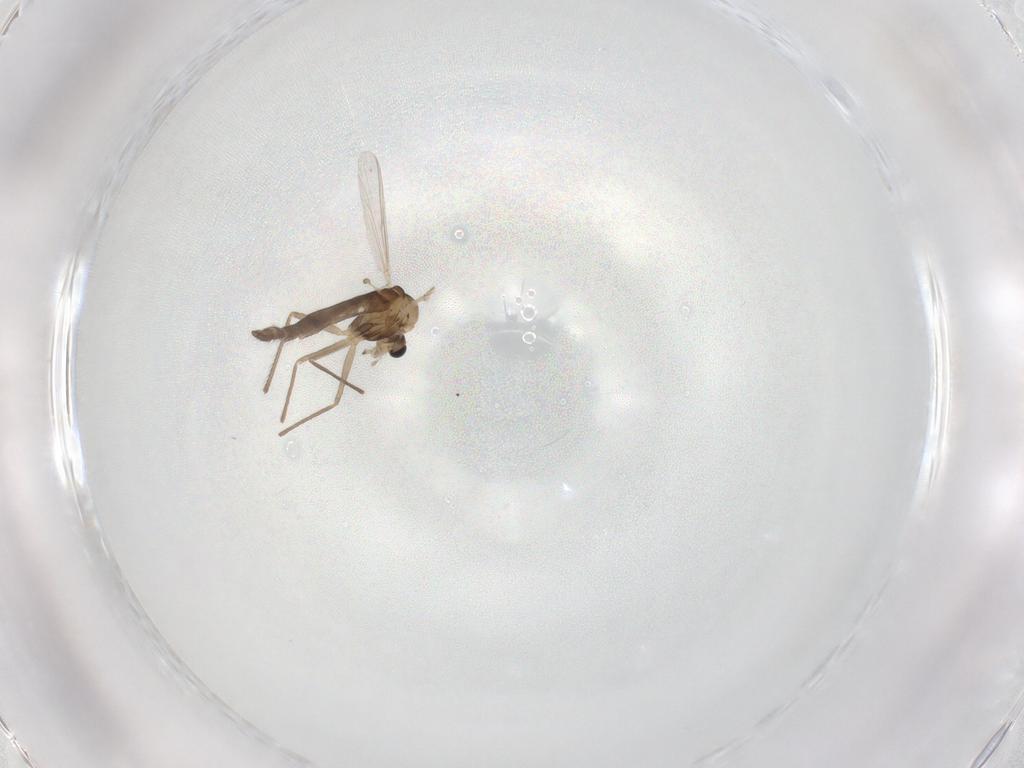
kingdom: Animalia
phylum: Arthropoda
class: Insecta
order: Diptera
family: Chironomidae
